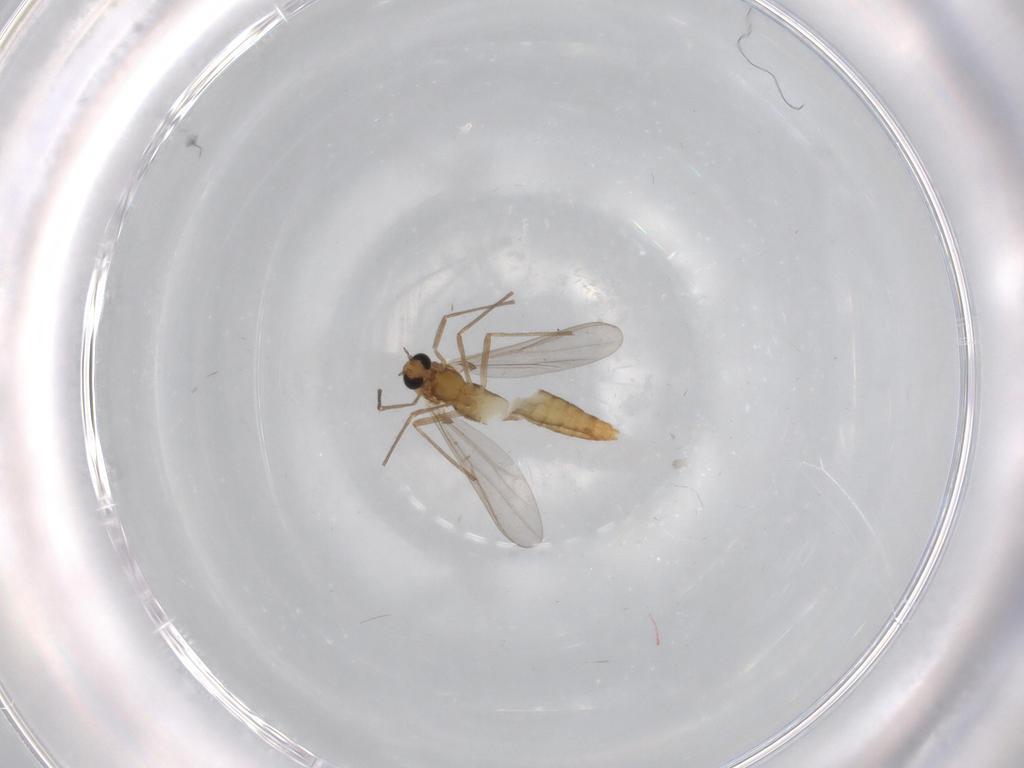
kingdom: Animalia
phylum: Arthropoda
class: Insecta
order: Diptera
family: Chironomidae
